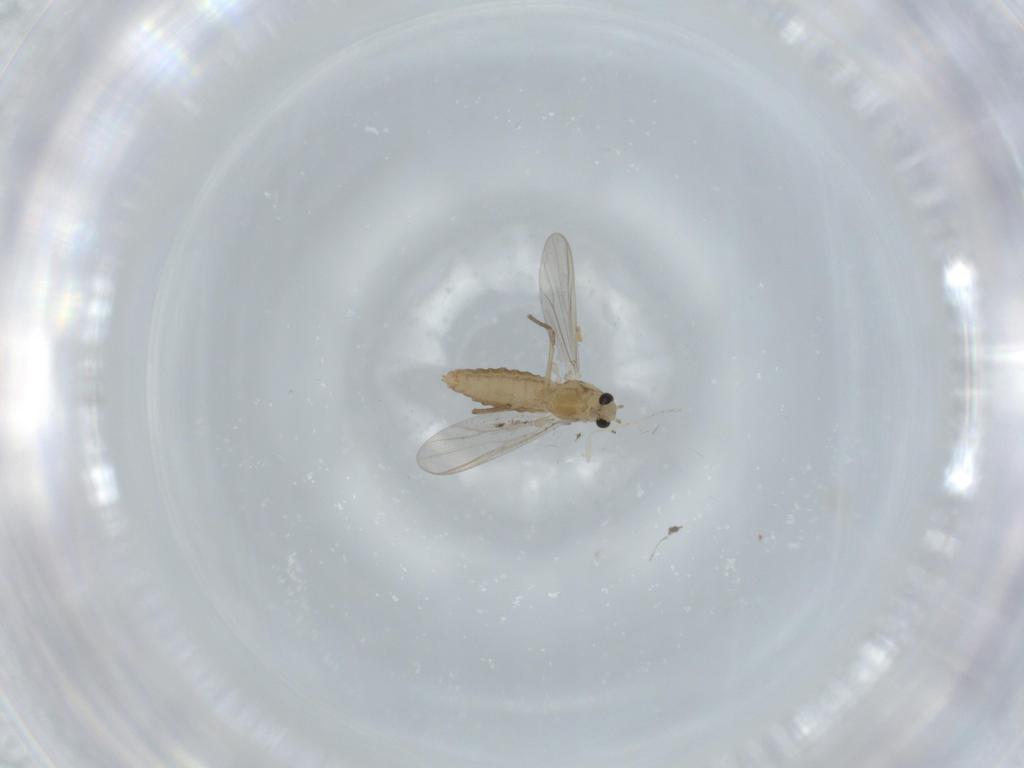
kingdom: Animalia
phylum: Arthropoda
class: Insecta
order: Diptera
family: Chironomidae
